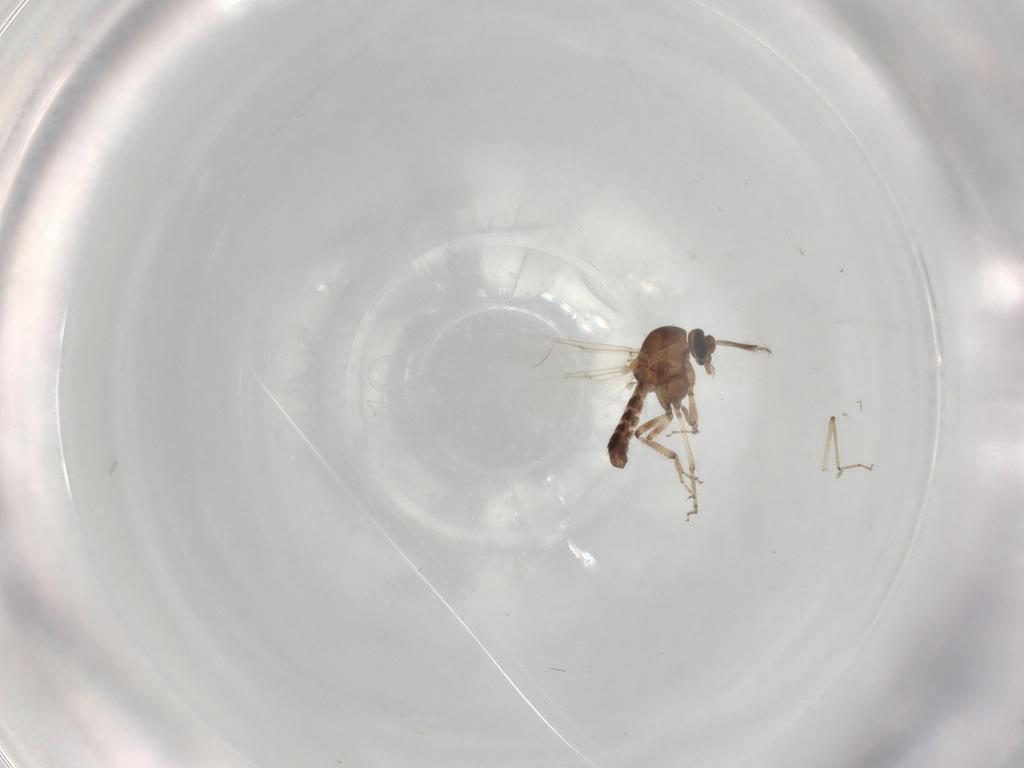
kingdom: Animalia
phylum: Arthropoda
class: Insecta
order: Diptera
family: Ceratopogonidae
